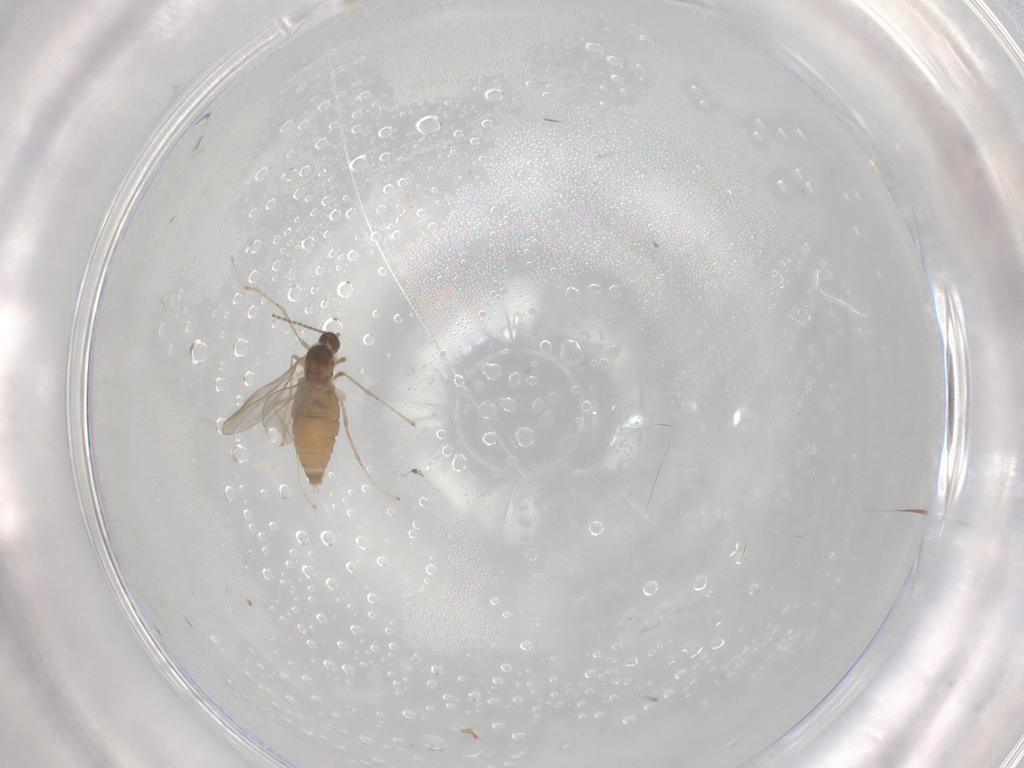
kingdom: Animalia
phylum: Arthropoda
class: Insecta
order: Diptera
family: Cecidomyiidae
